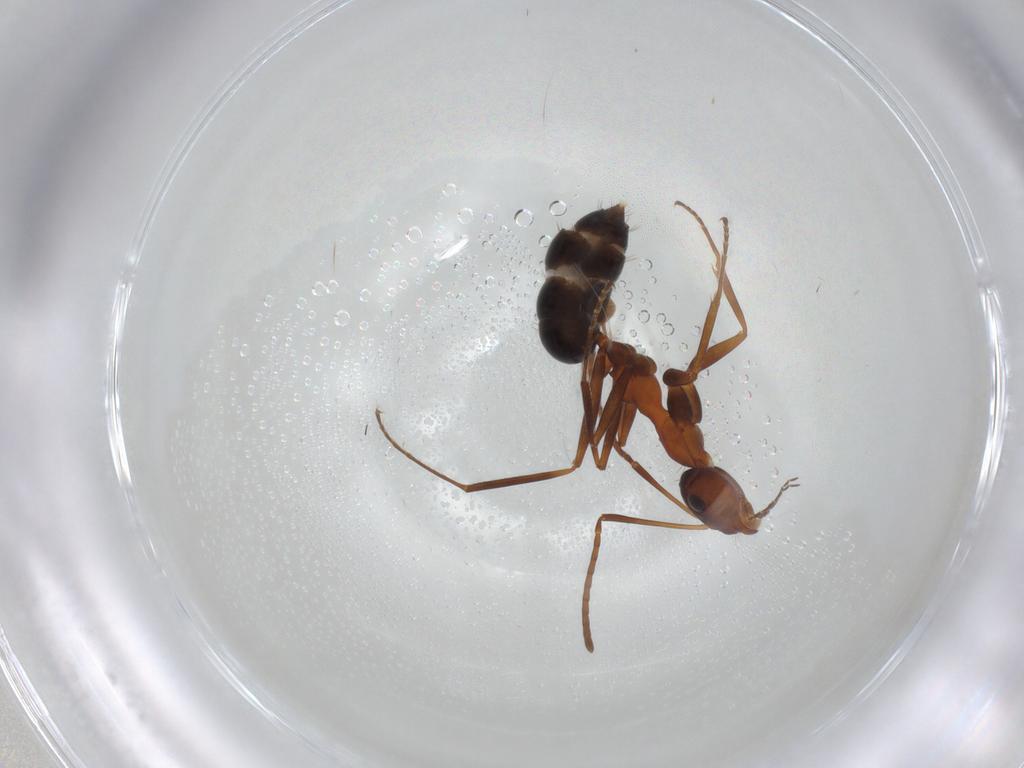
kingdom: Animalia
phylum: Arthropoda
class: Insecta
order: Hymenoptera
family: Formicidae
